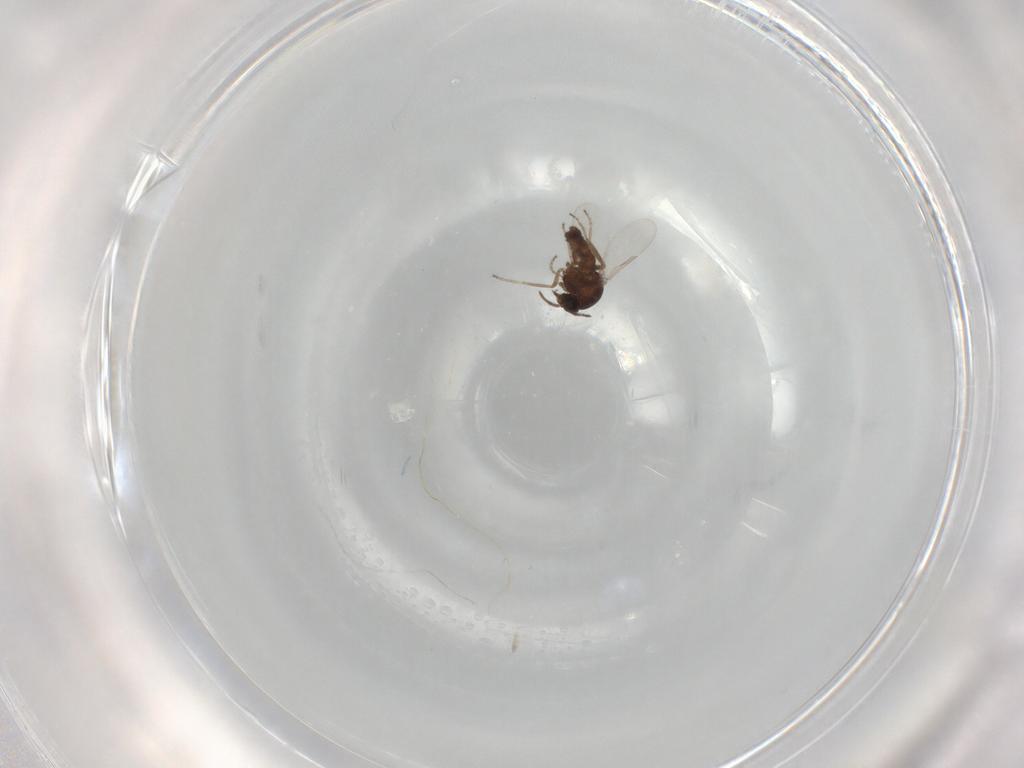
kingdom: Animalia
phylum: Arthropoda
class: Insecta
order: Diptera
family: Ceratopogonidae
